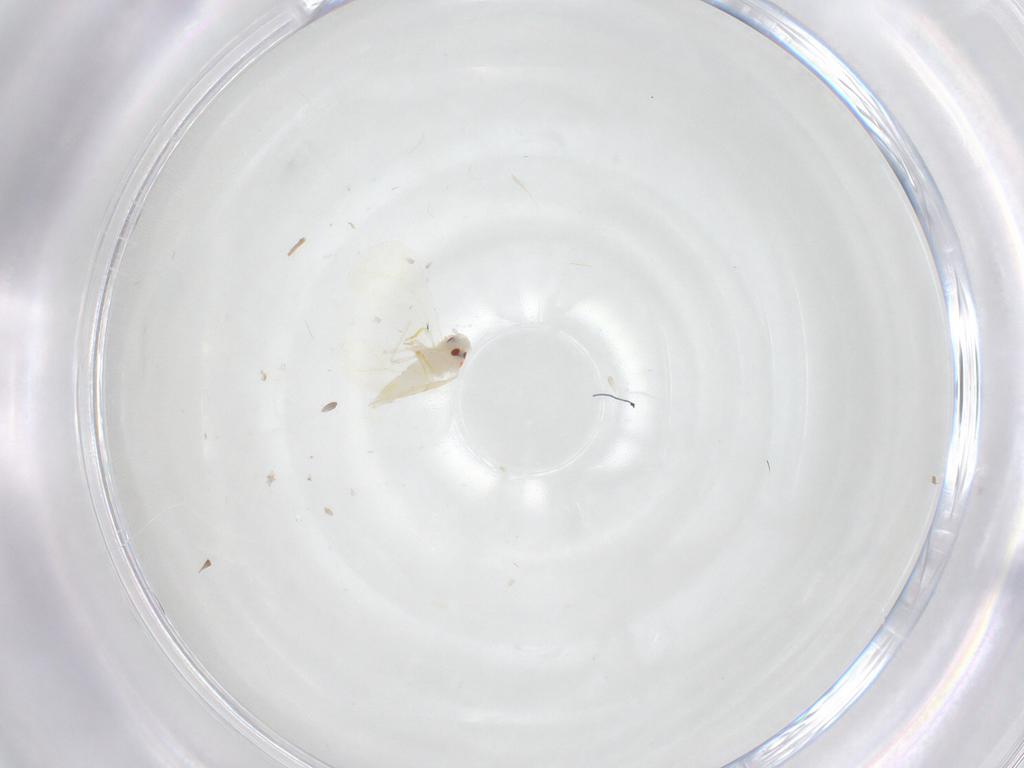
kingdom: Animalia
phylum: Arthropoda
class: Insecta
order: Hemiptera
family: Aleyrodidae
